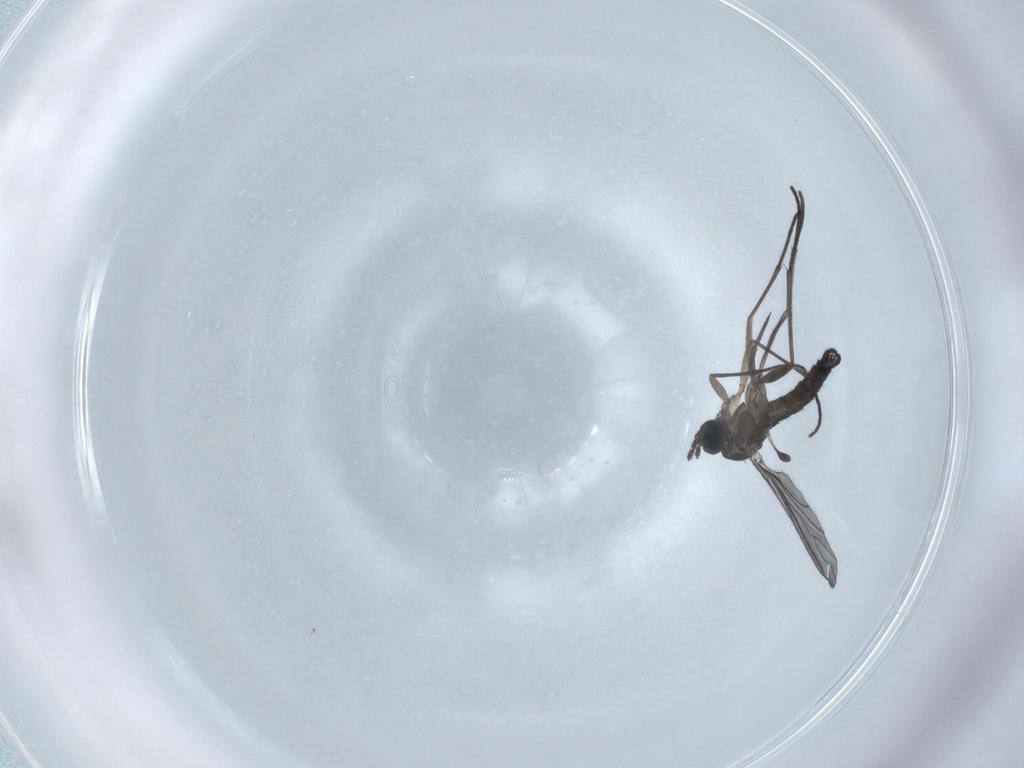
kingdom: Animalia
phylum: Arthropoda
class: Insecta
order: Diptera
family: Sciaridae
